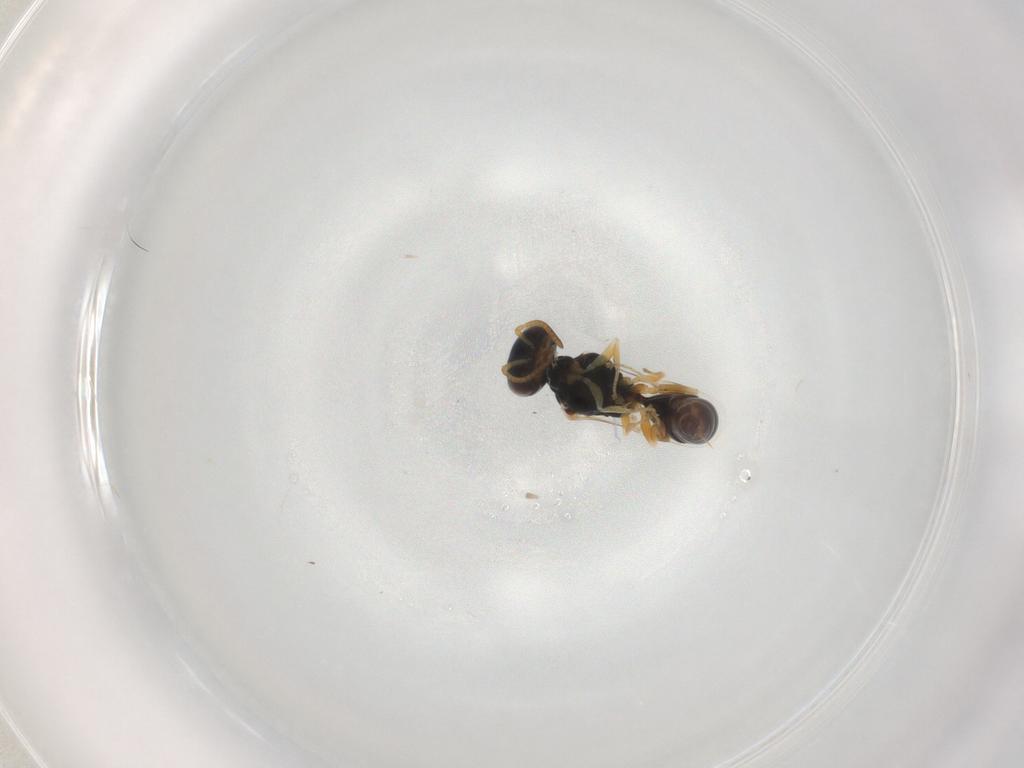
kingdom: Animalia
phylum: Arthropoda
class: Insecta
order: Hymenoptera
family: Pemphredonidae
